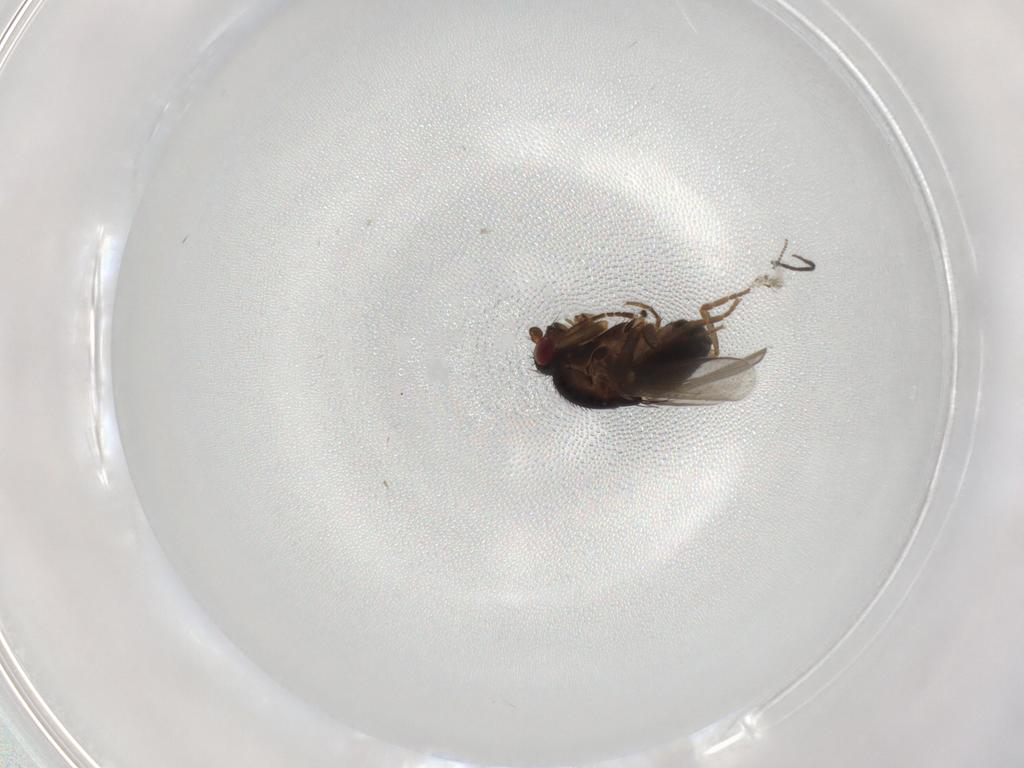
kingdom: Animalia
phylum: Arthropoda
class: Insecta
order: Diptera
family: Sphaeroceridae
